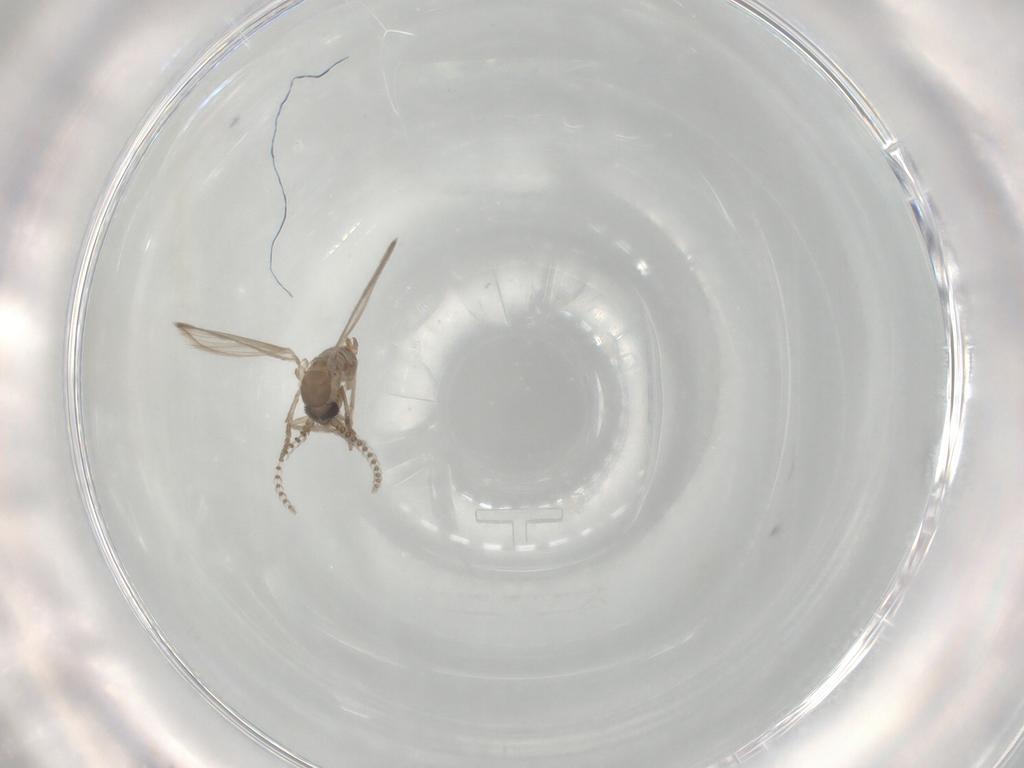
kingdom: Animalia
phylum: Arthropoda
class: Insecta
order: Diptera
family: Psychodidae
